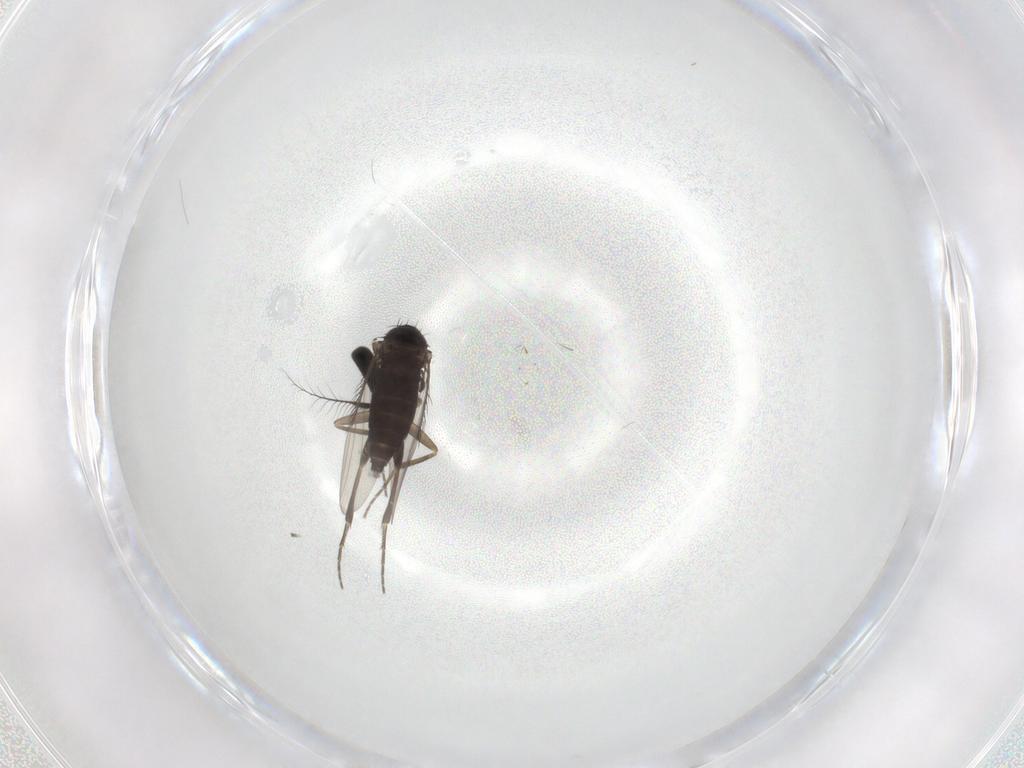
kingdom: Animalia
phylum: Arthropoda
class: Insecta
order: Diptera
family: Phoridae
